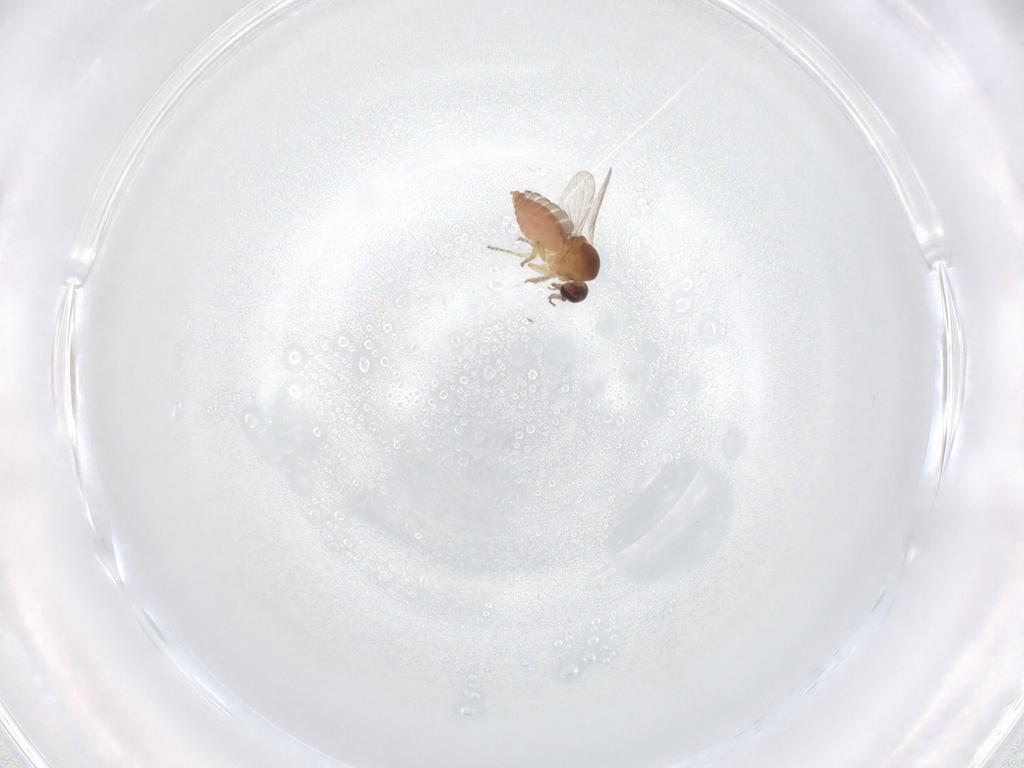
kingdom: Animalia
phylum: Arthropoda
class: Insecta
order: Diptera
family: Ceratopogonidae
